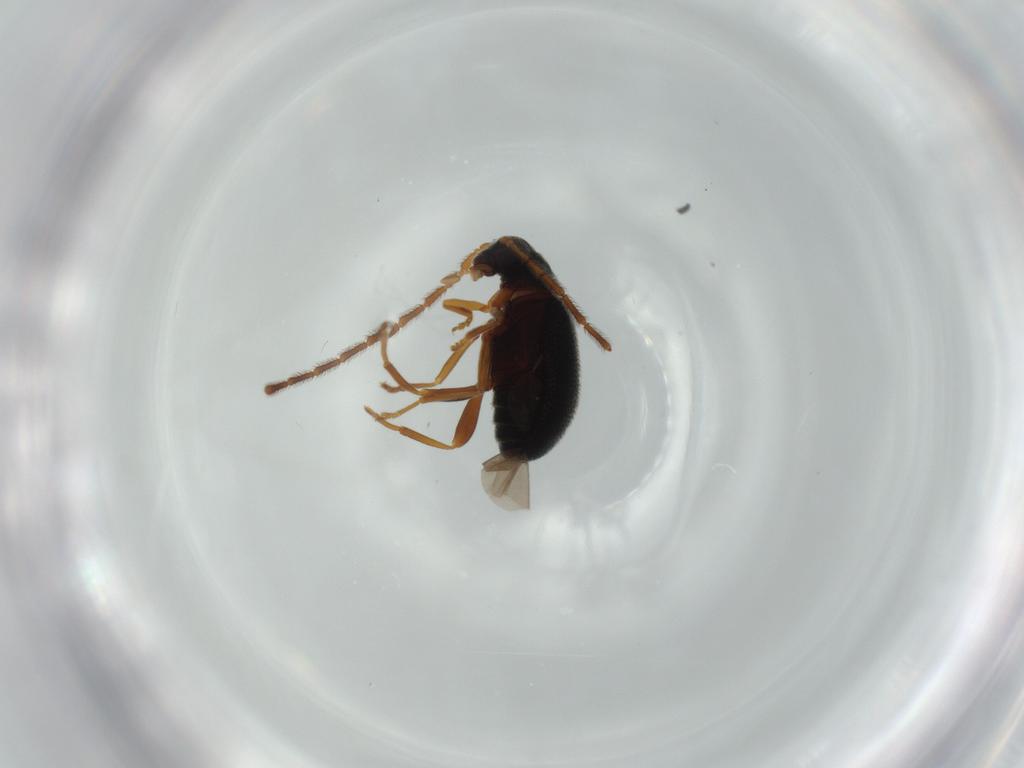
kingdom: Animalia
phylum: Arthropoda
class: Insecta
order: Coleoptera
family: Aderidae
